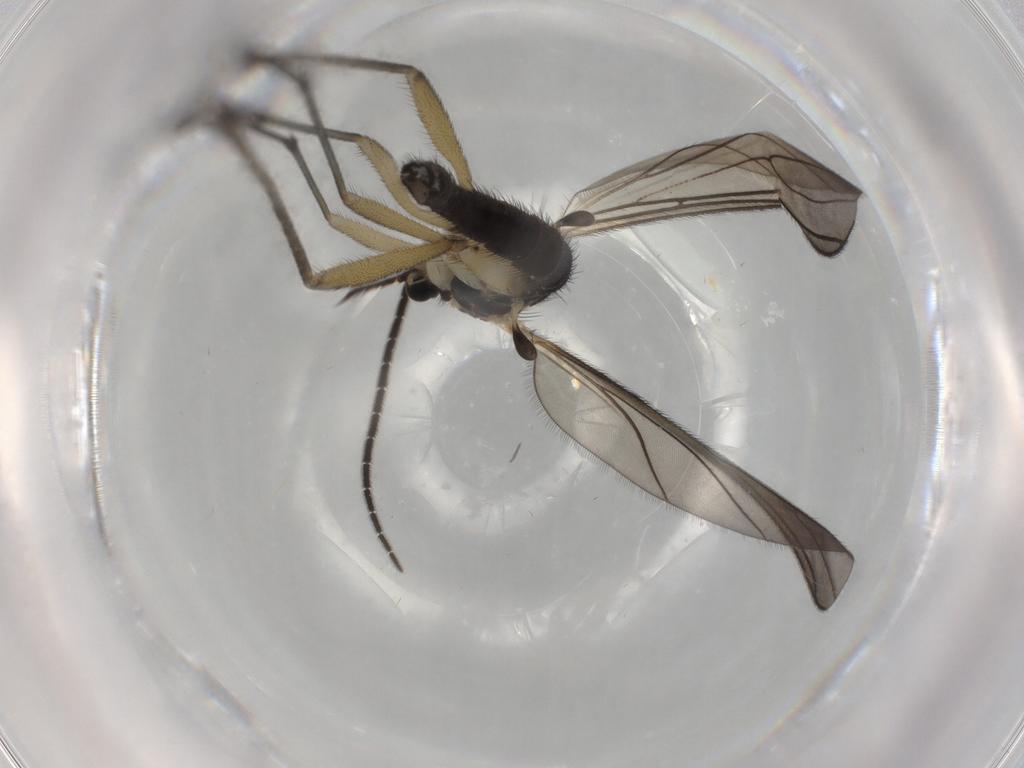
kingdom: Animalia
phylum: Arthropoda
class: Insecta
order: Diptera
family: Sciaridae
